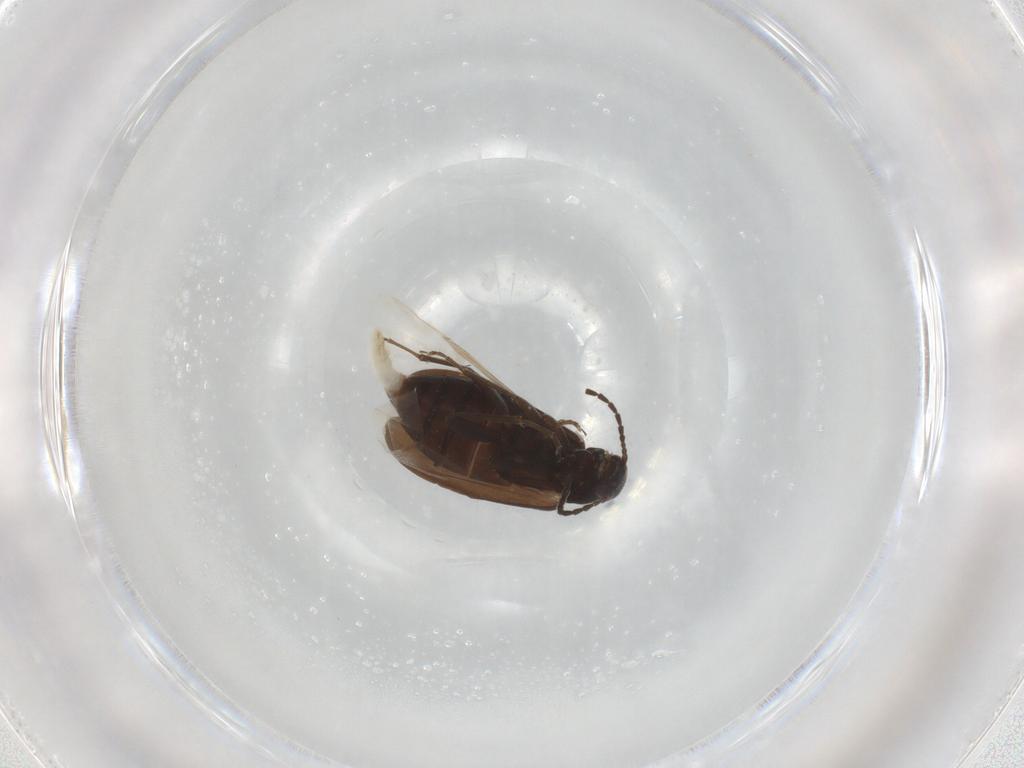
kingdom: Animalia
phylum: Arthropoda
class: Insecta
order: Coleoptera
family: Scraptiidae
